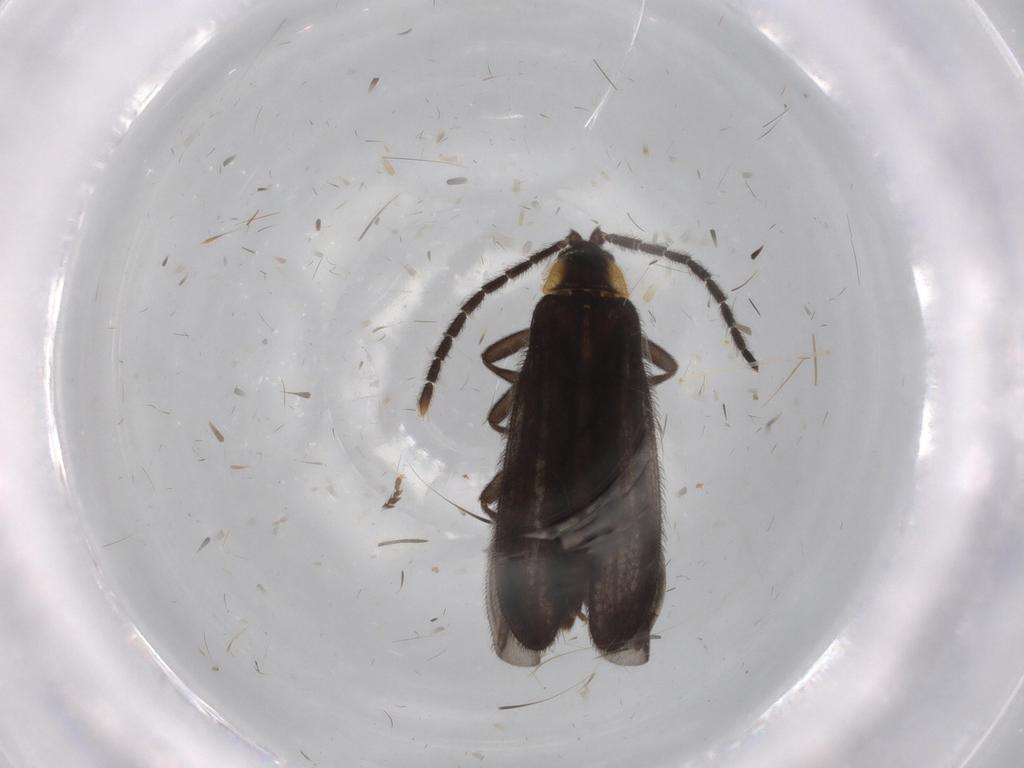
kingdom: Animalia
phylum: Arthropoda
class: Insecta
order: Coleoptera
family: Lycidae
